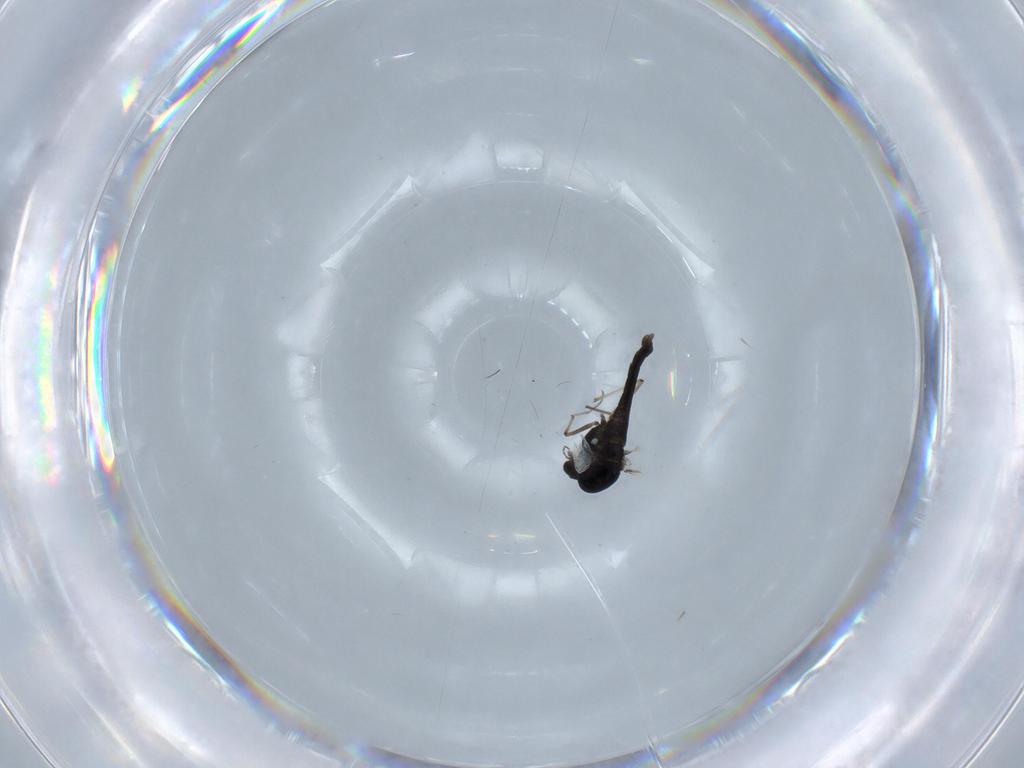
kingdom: Animalia
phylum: Arthropoda
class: Insecta
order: Diptera
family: Chironomidae
